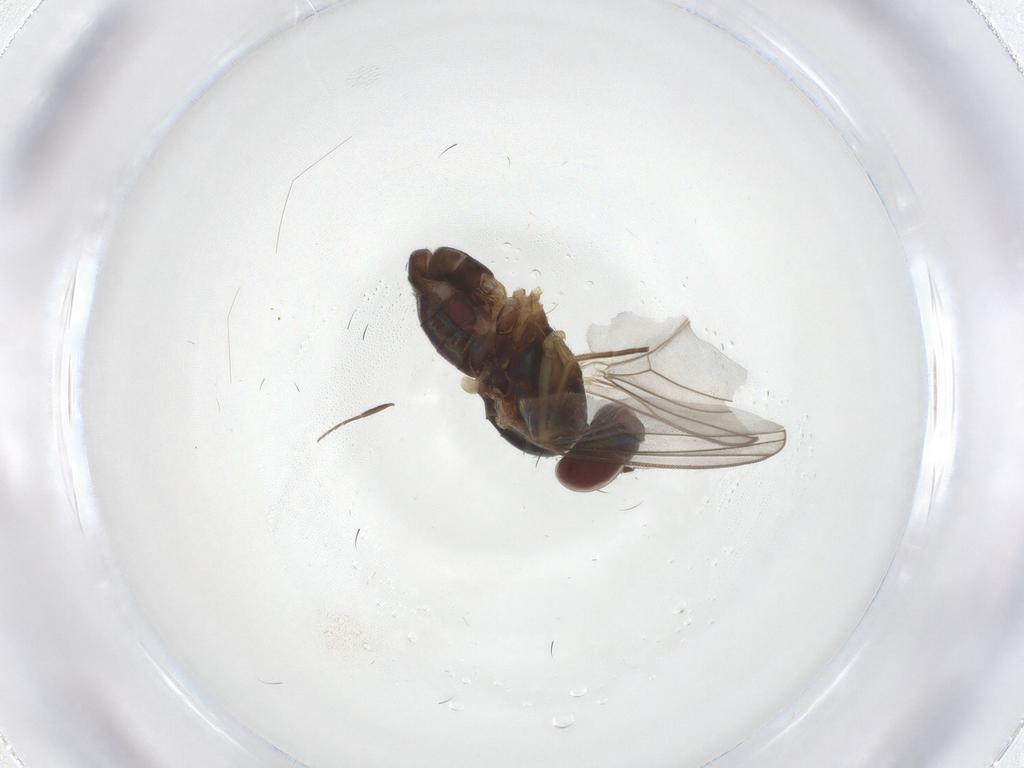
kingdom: Animalia
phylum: Arthropoda
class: Insecta
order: Diptera
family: Dolichopodidae
